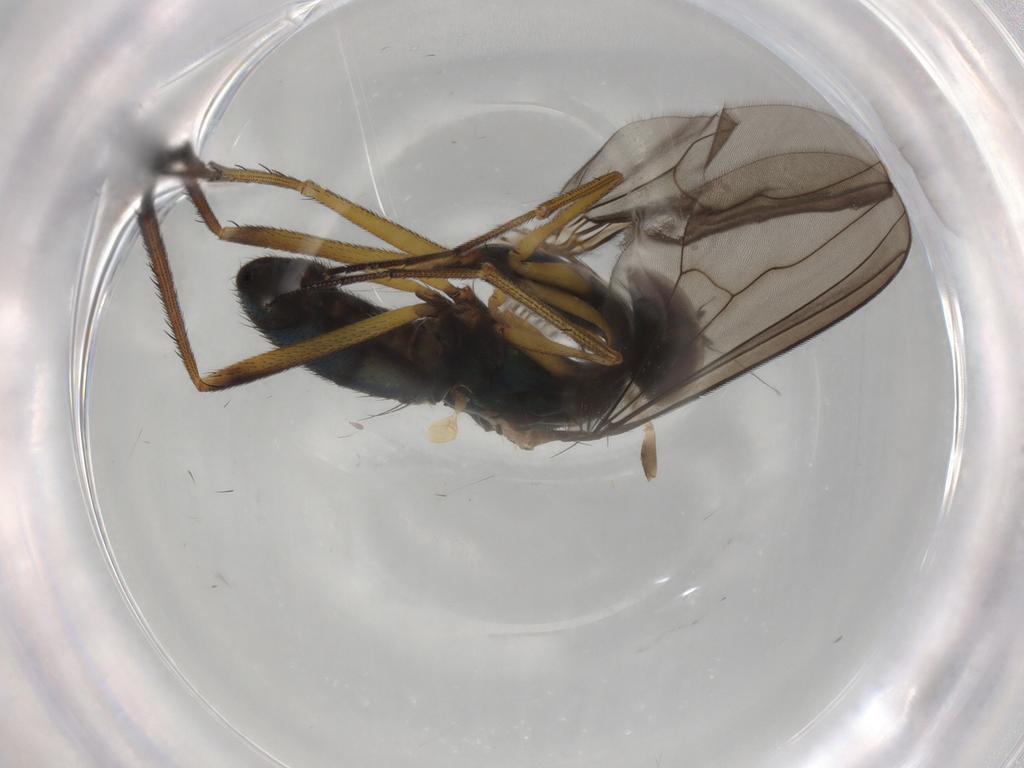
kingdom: Animalia
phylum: Arthropoda
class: Insecta
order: Diptera
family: Dolichopodidae
